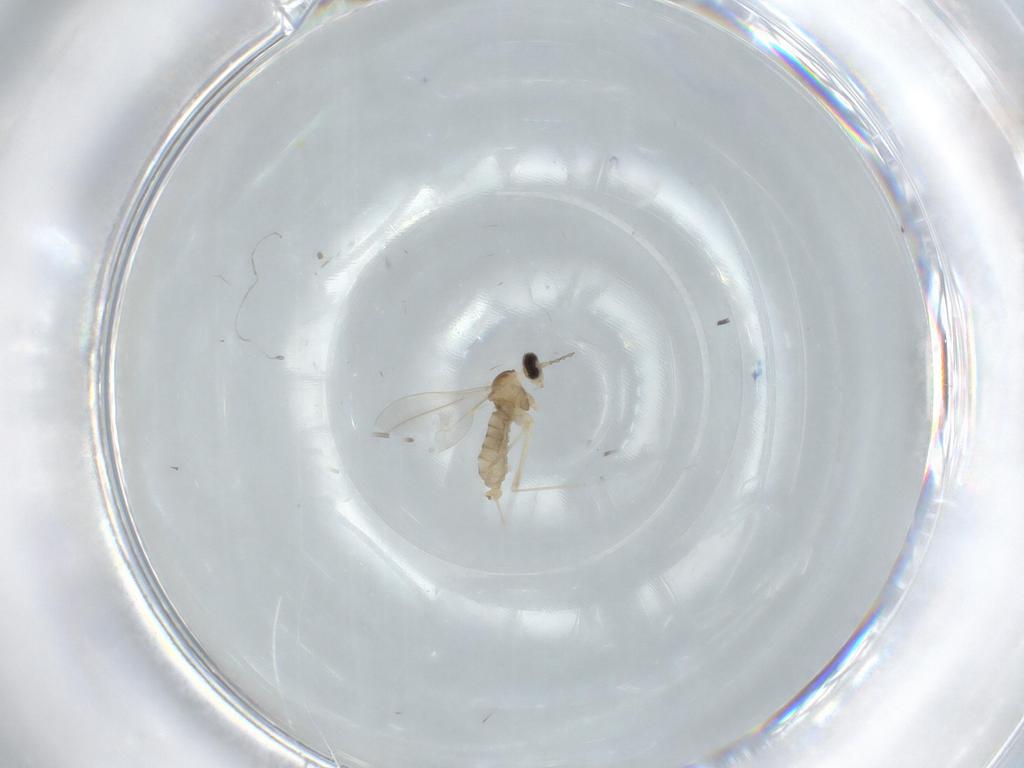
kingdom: Animalia
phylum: Arthropoda
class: Insecta
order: Diptera
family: Cecidomyiidae
